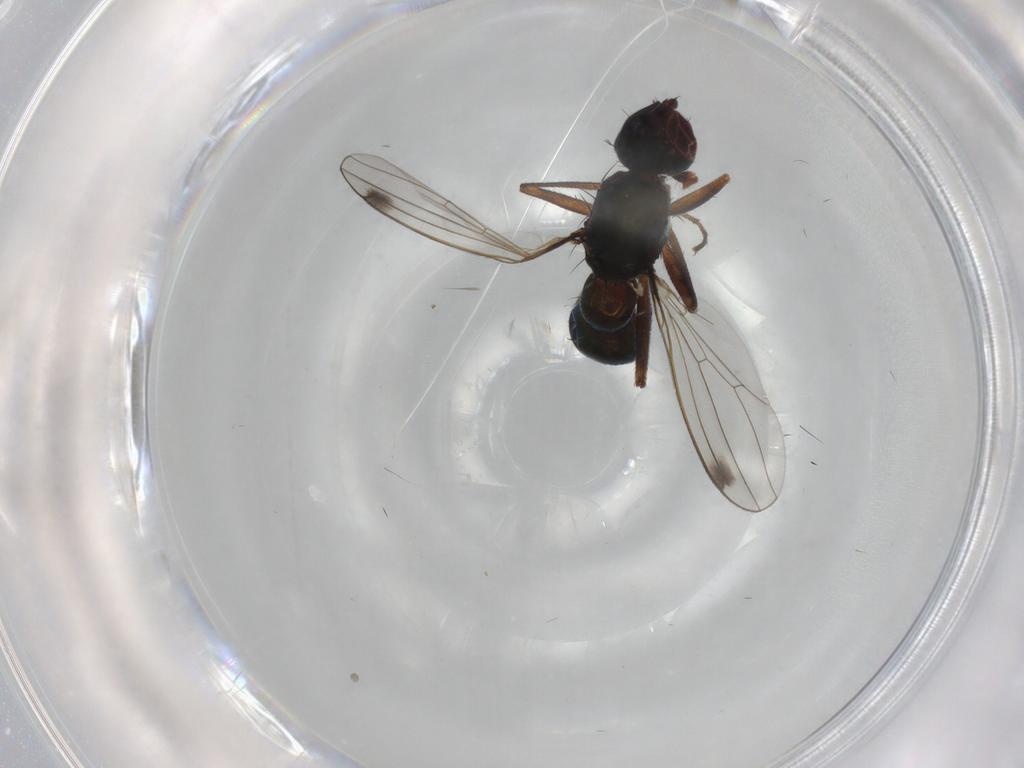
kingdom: Animalia
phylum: Arthropoda
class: Insecta
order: Diptera
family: Sepsidae
